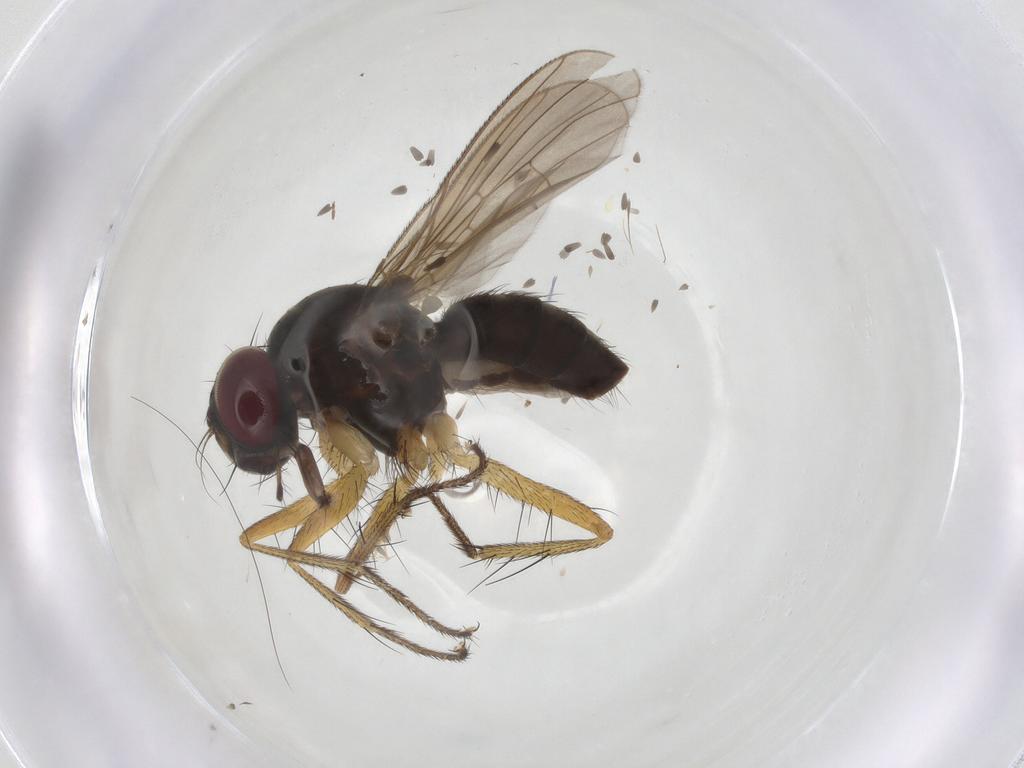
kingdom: Animalia
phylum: Arthropoda
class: Insecta
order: Diptera
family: Muscidae
